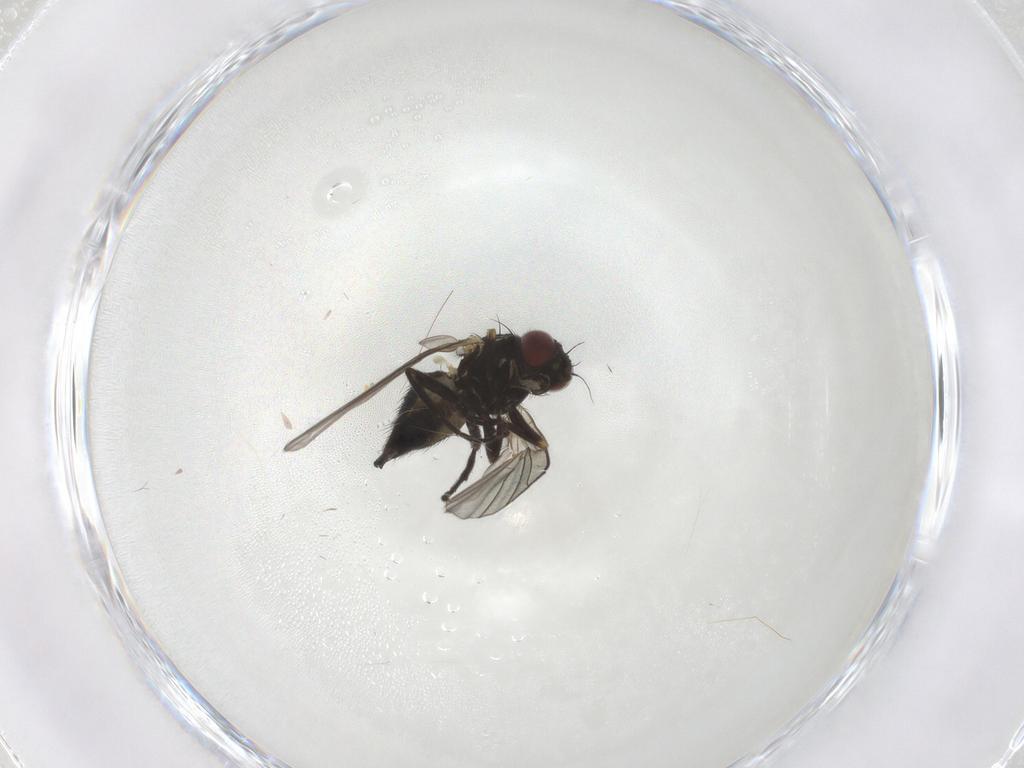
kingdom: Animalia
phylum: Arthropoda
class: Insecta
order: Diptera
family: Agromyzidae
